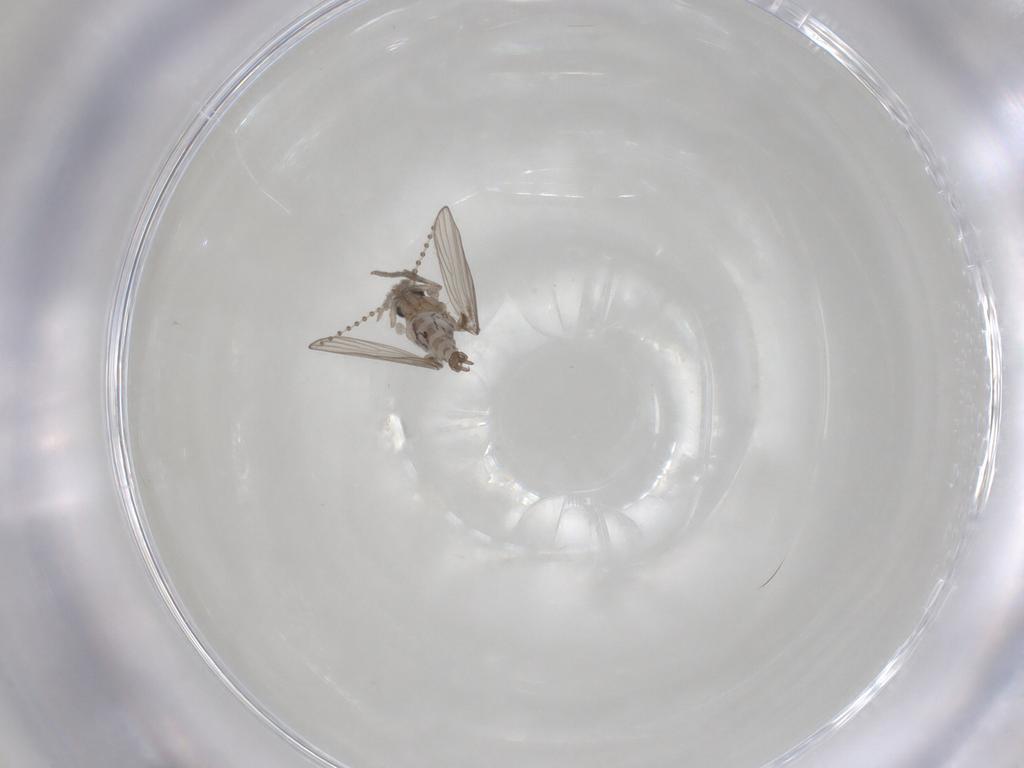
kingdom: Animalia
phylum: Arthropoda
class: Insecta
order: Diptera
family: Psychodidae
